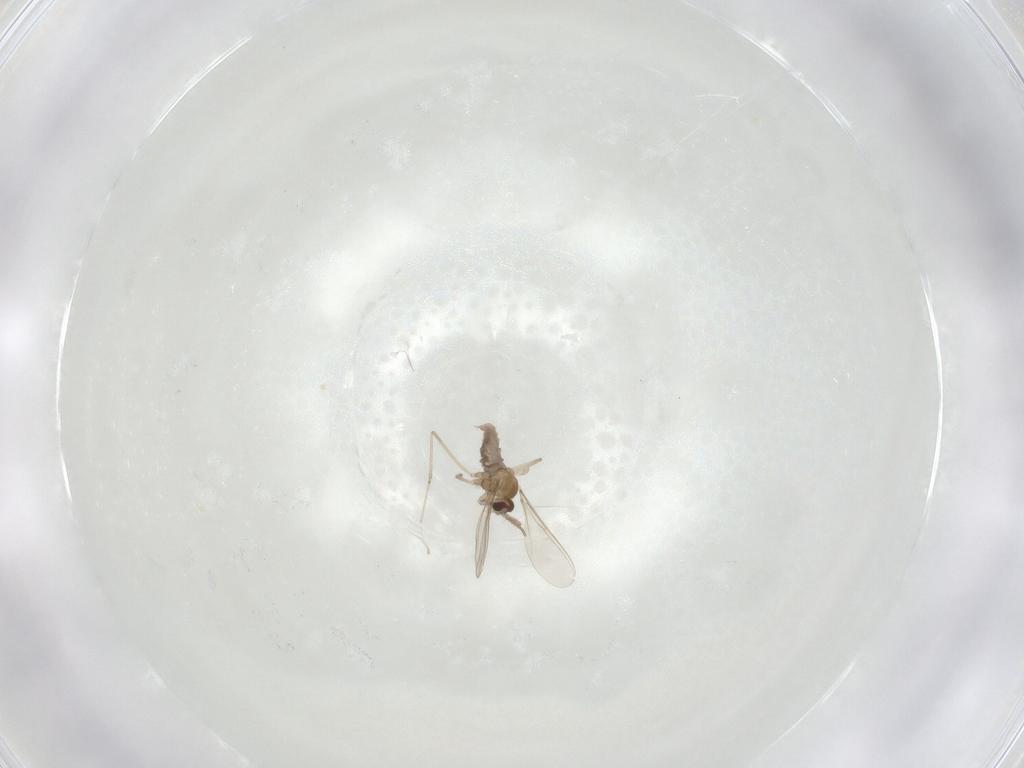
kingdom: Animalia
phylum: Arthropoda
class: Insecta
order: Diptera
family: Cecidomyiidae
